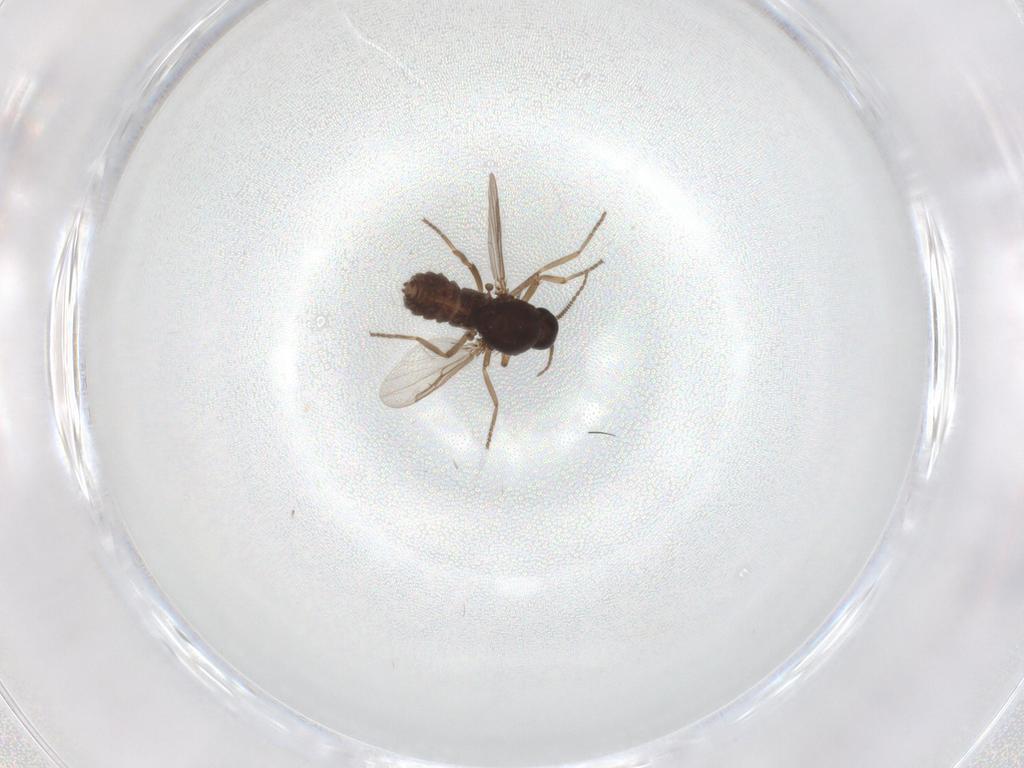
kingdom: Animalia
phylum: Arthropoda
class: Insecta
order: Diptera
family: Ceratopogonidae
